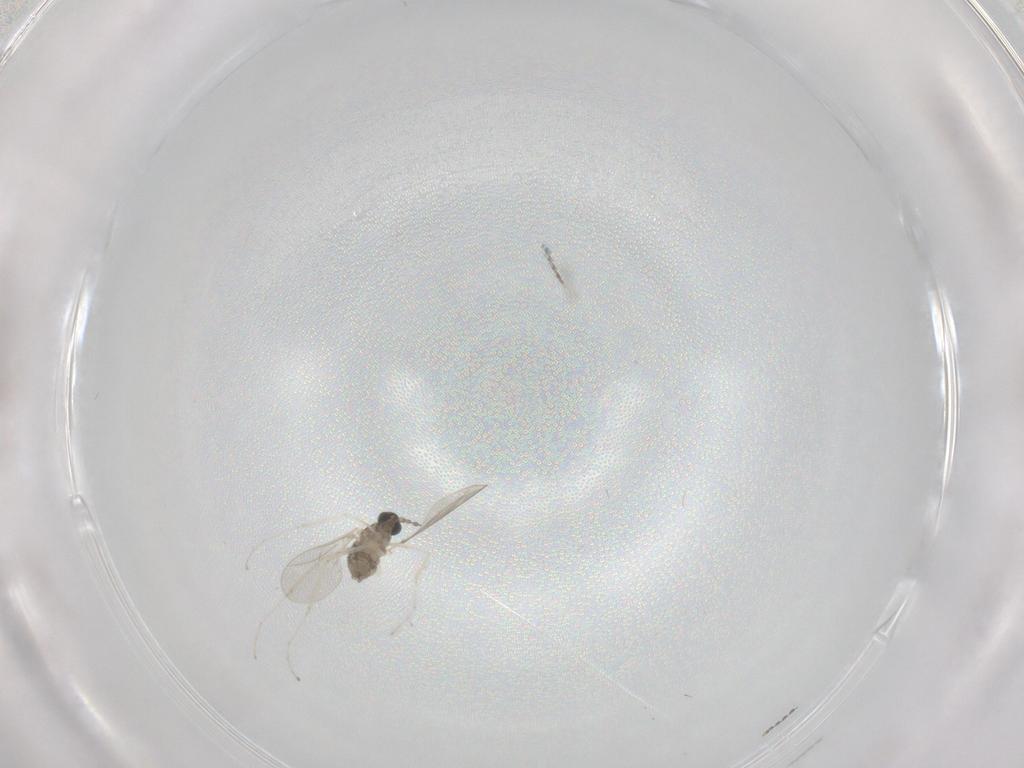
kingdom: Animalia
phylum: Arthropoda
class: Insecta
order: Diptera
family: Cecidomyiidae
